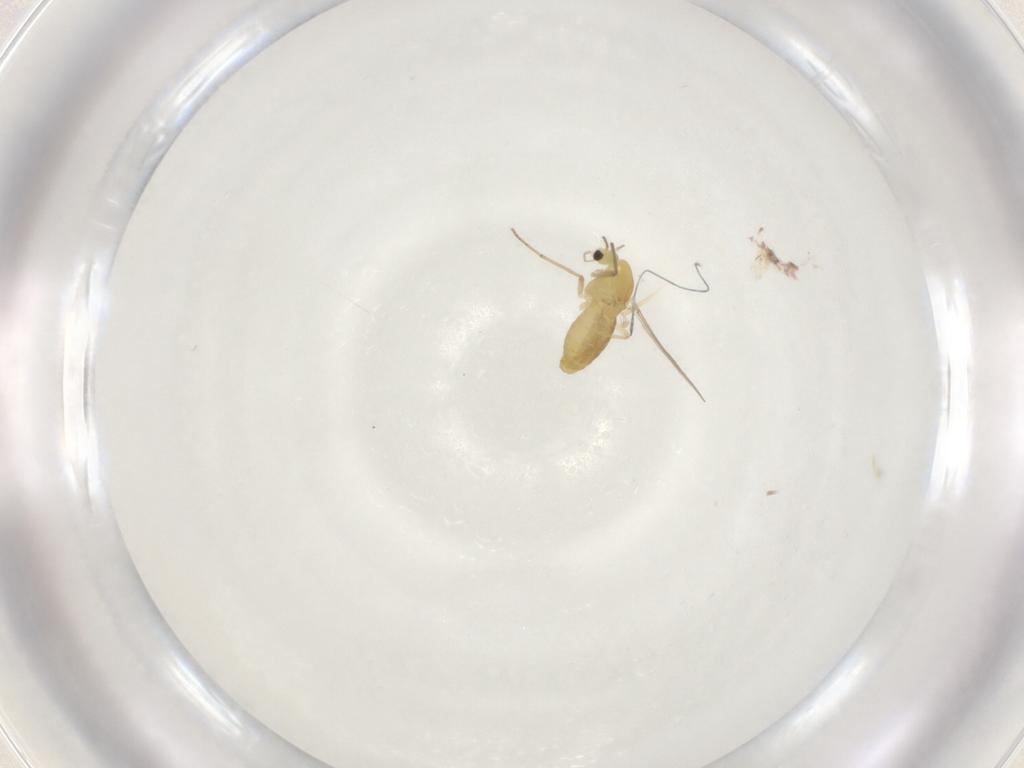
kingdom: Animalia
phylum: Arthropoda
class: Insecta
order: Diptera
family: Chironomidae
